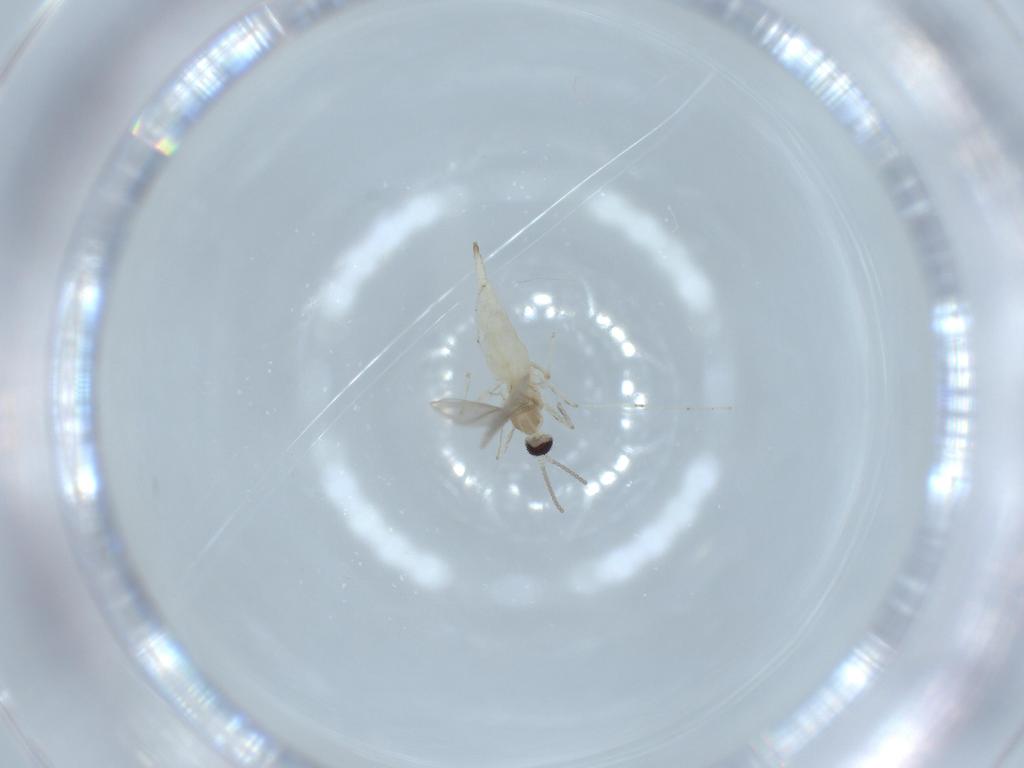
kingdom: Animalia
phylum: Arthropoda
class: Insecta
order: Diptera
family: Cecidomyiidae
